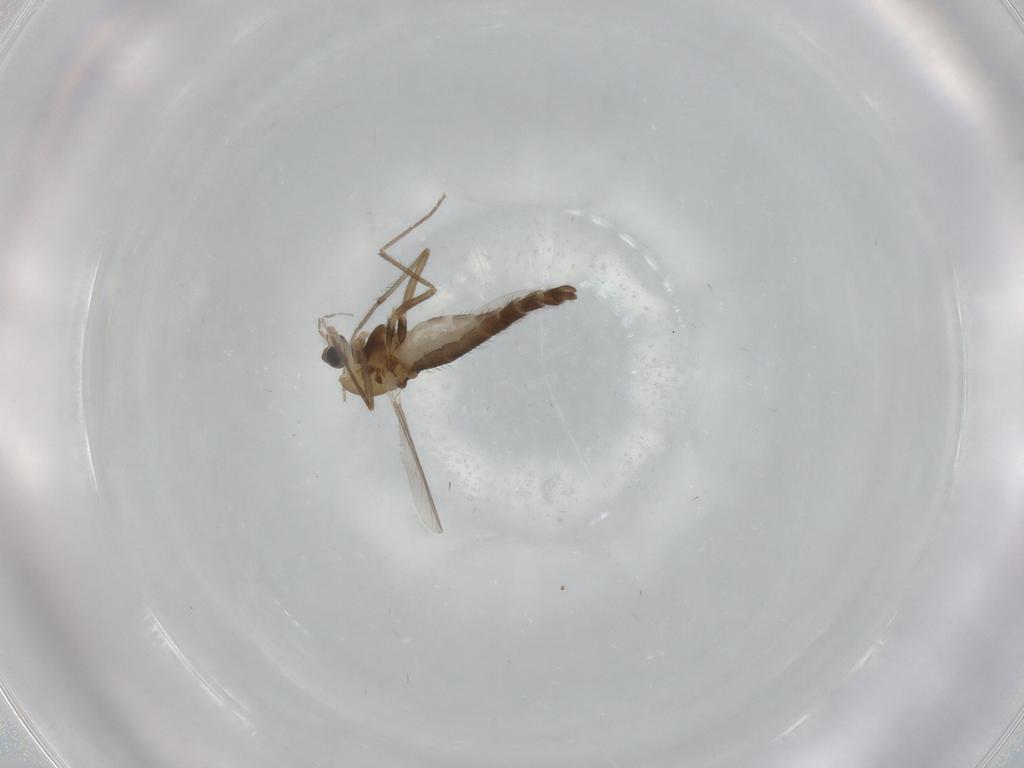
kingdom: Animalia
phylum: Arthropoda
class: Insecta
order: Diptera
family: Chironomidae
